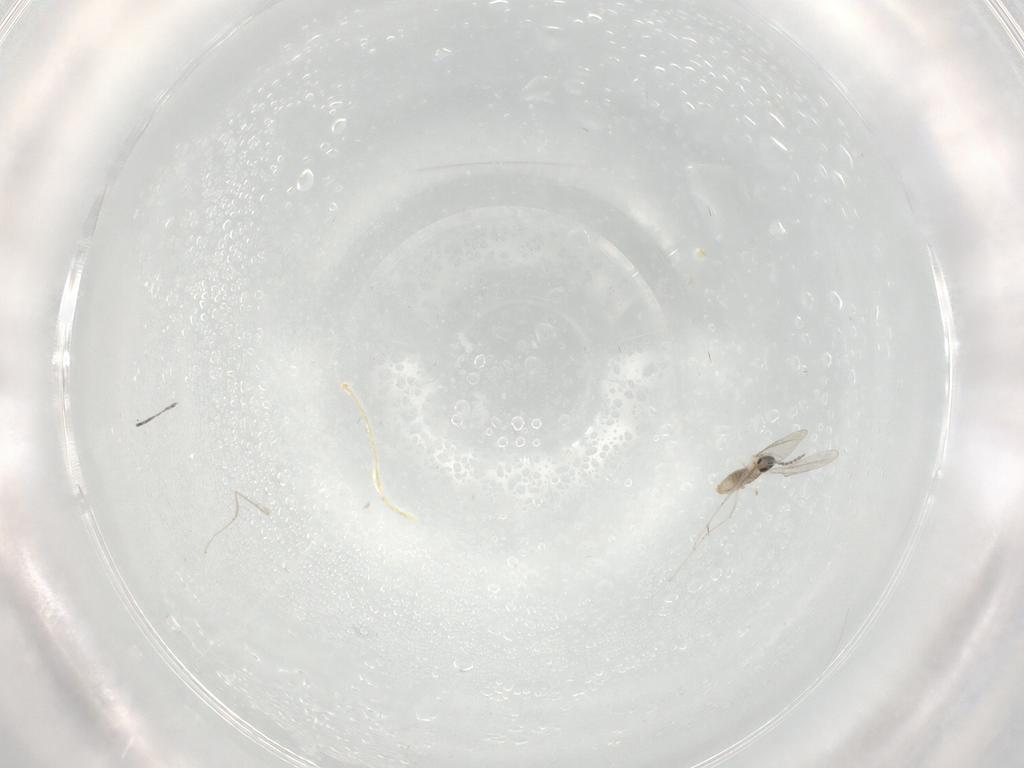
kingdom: Animalia
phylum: Arthropoda
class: Insecta
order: Diptera
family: Cecidomyiidae
